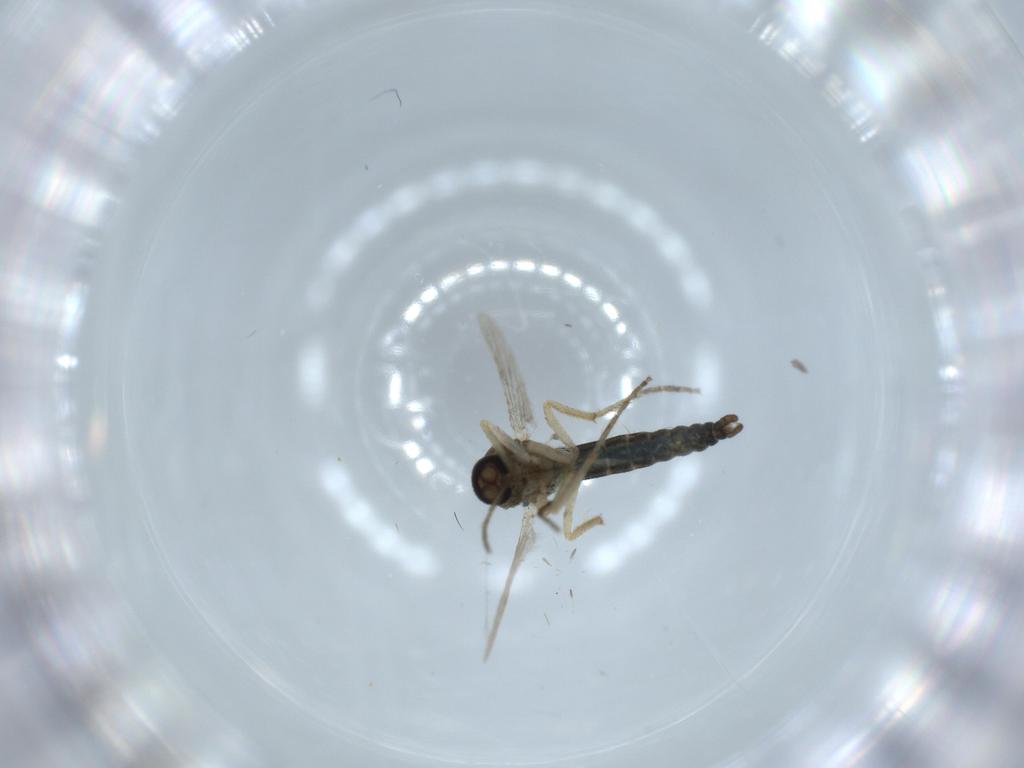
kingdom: Animalia
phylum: Arthropoda
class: Insecta
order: Diptera
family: Ceratopogonidae
